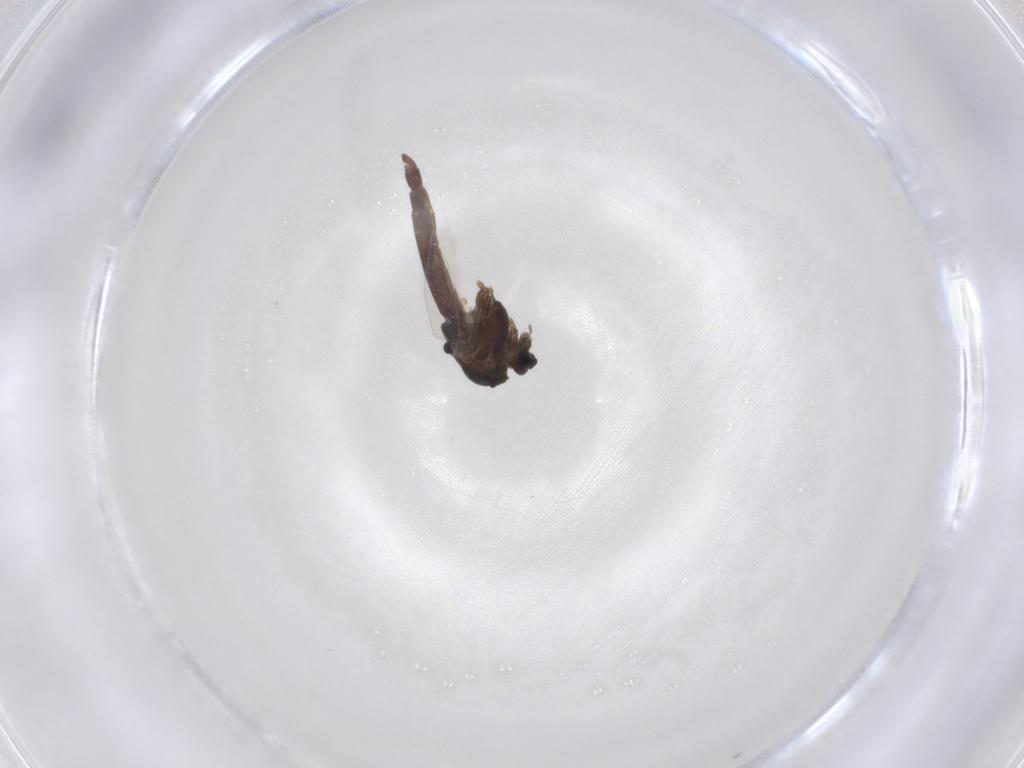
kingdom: Animalia
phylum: Arthropoda
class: Insecta
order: Diptera
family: Chironomidae
